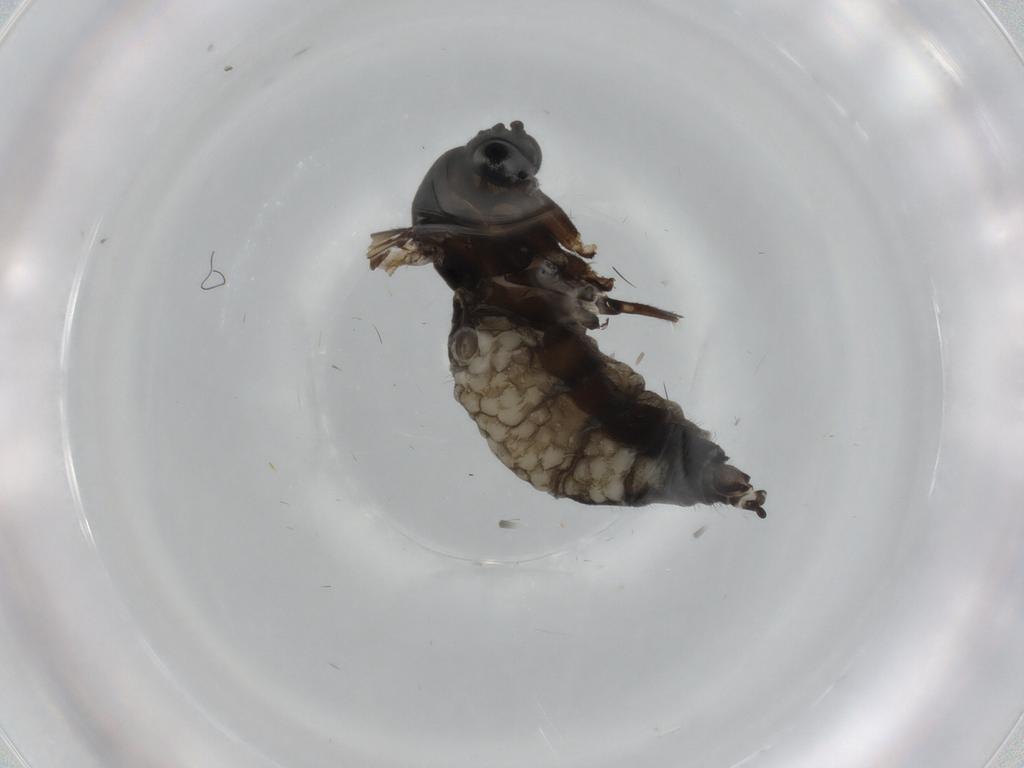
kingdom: Animalia
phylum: Arthropoda
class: Insecta
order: Diptera
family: Sciaridae
